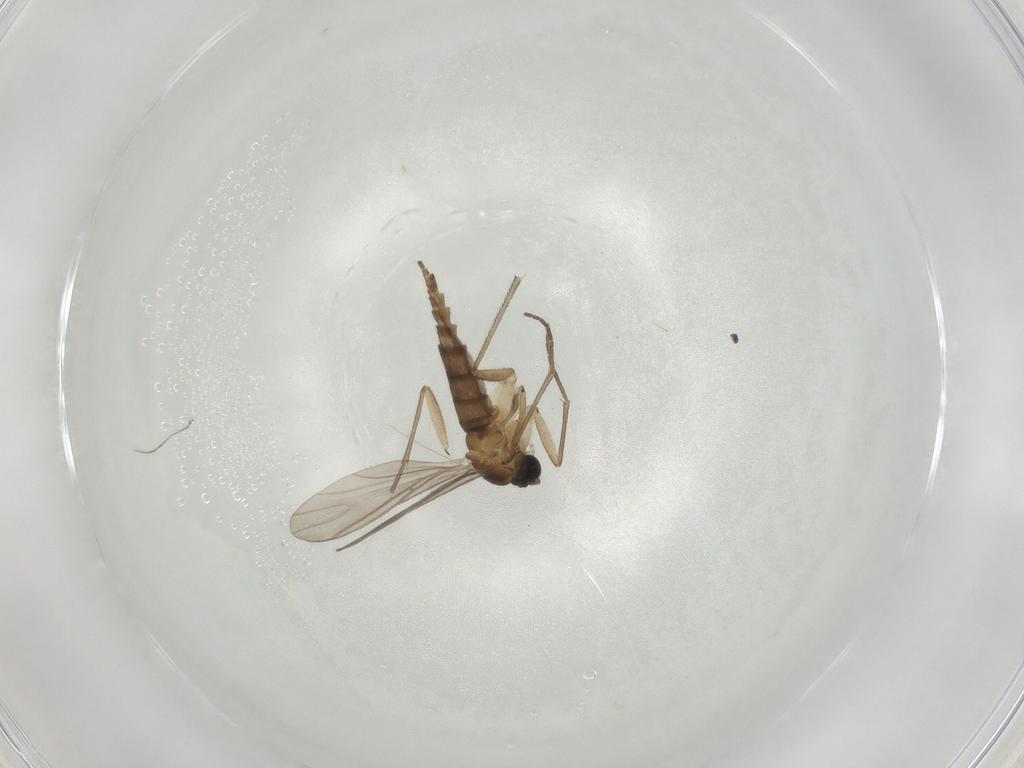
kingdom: Animalia
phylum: Arthropoda
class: Insecta
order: Diptera
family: Sciaridae
